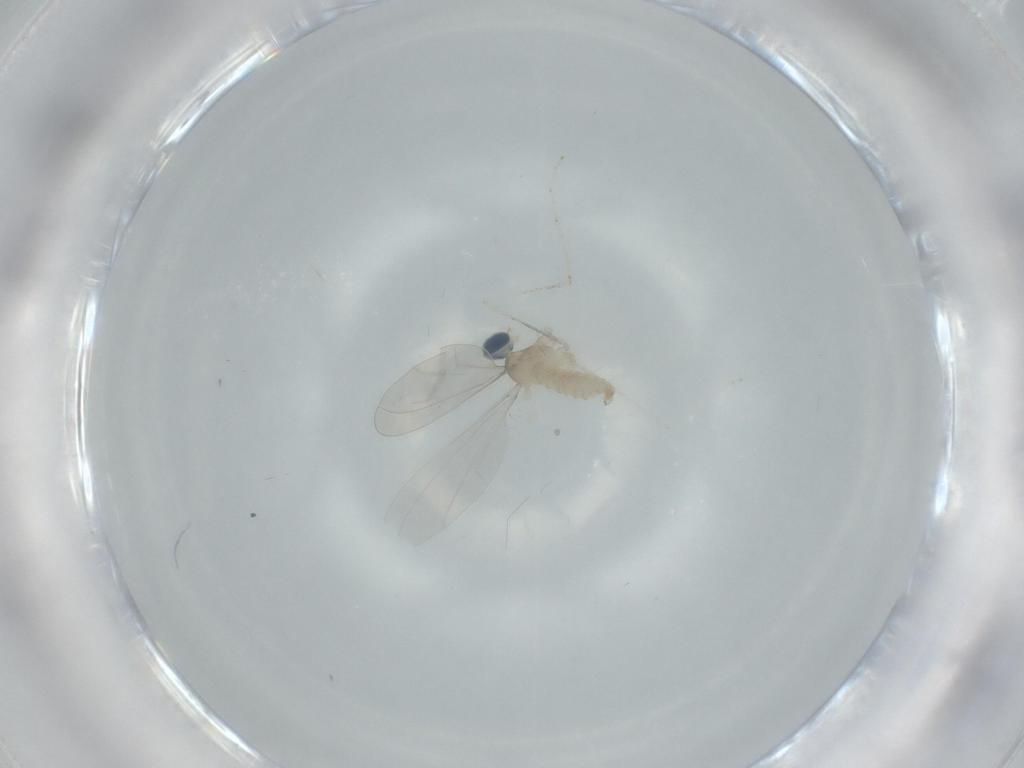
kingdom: Animalia
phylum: Arthropoda
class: Insecta
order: Diptera
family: Cecidomyiidae
